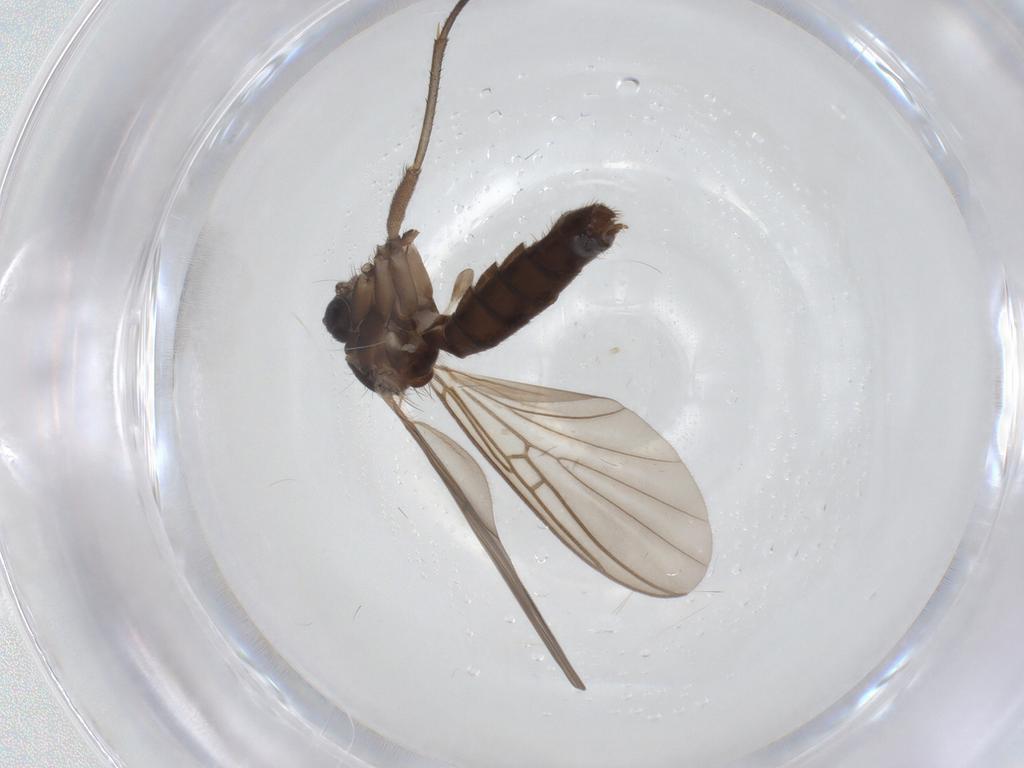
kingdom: Animalia
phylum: Arthropoda
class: Insecta
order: Diptera
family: Mycetophilidae
